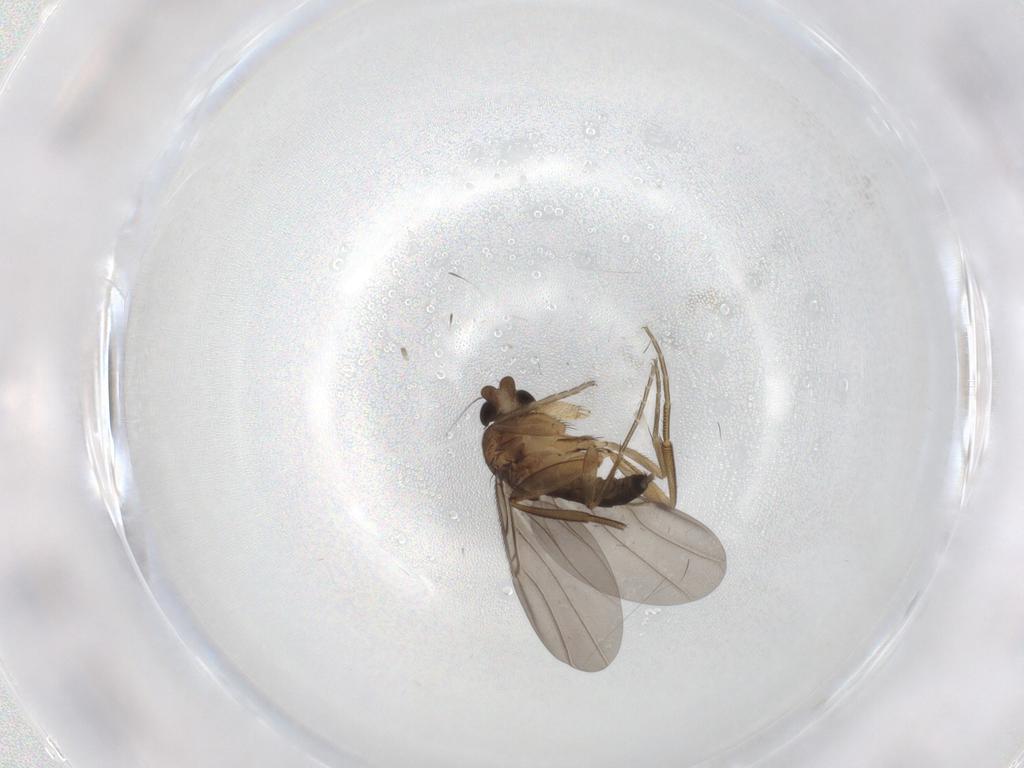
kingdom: Animalia
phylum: Arthropoda
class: Insecta
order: Diptera
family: Phoridae
